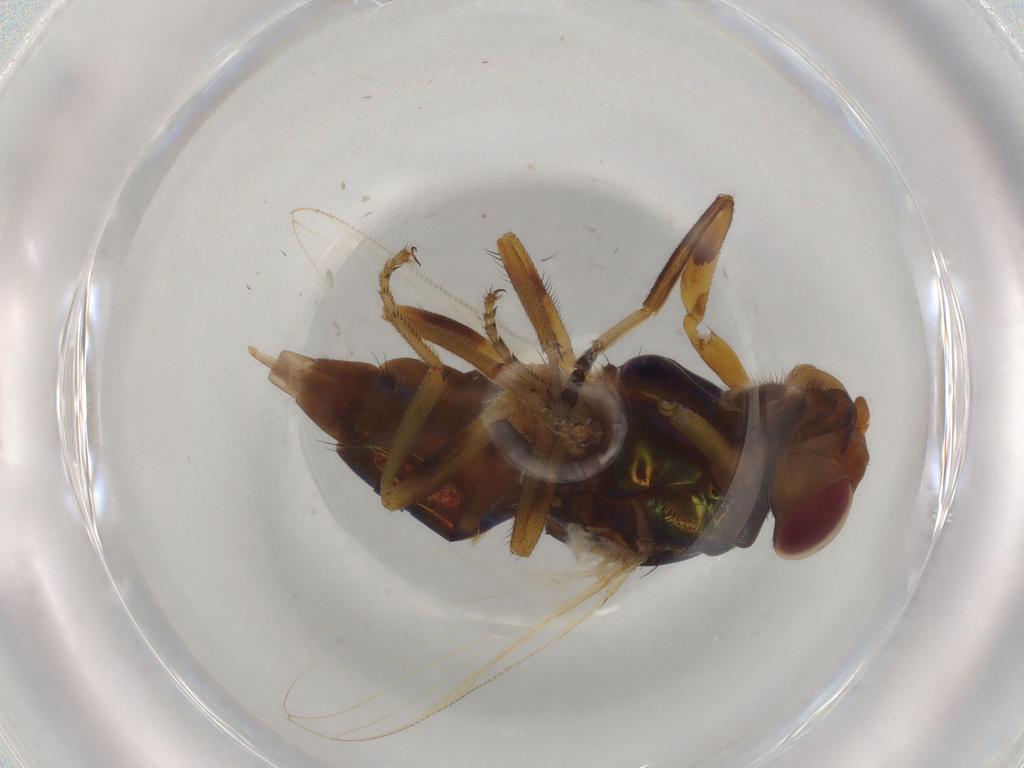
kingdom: Animalia
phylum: Arthropoda
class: Insecta
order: Diptera
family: Ulidiidae
